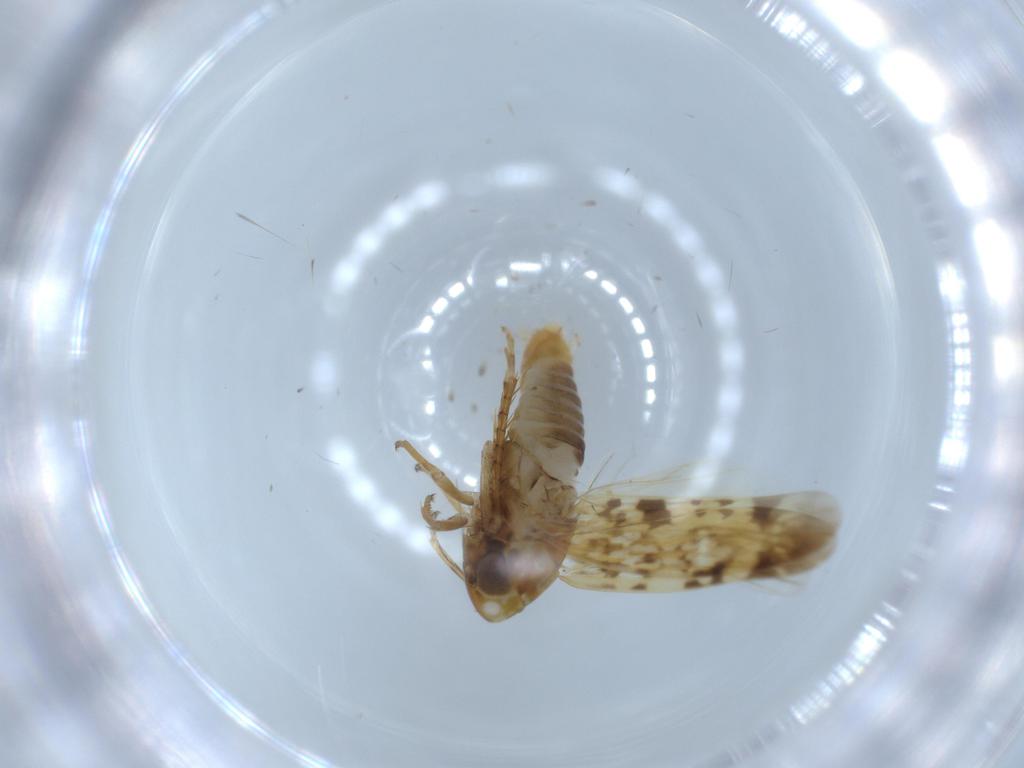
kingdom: Animalia
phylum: Arthropoda
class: Insecta
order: Hemiptera
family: Cicadellidae
